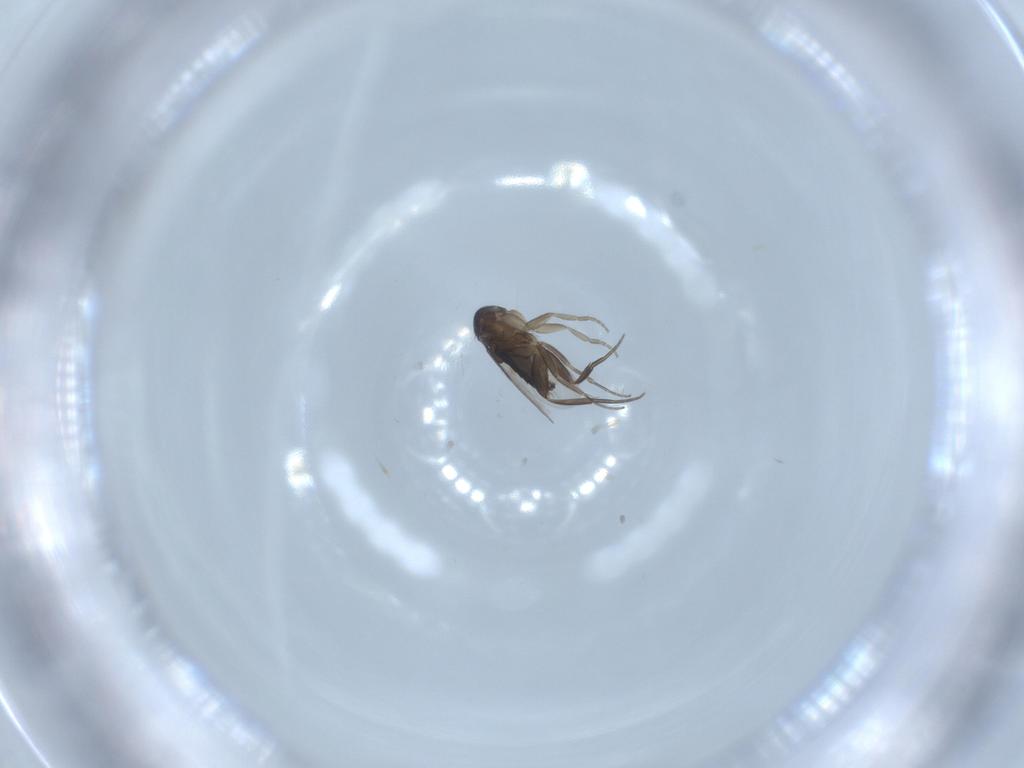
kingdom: Animalia
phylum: Arthropoda
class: Insecta
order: Diptera
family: Phoridae
